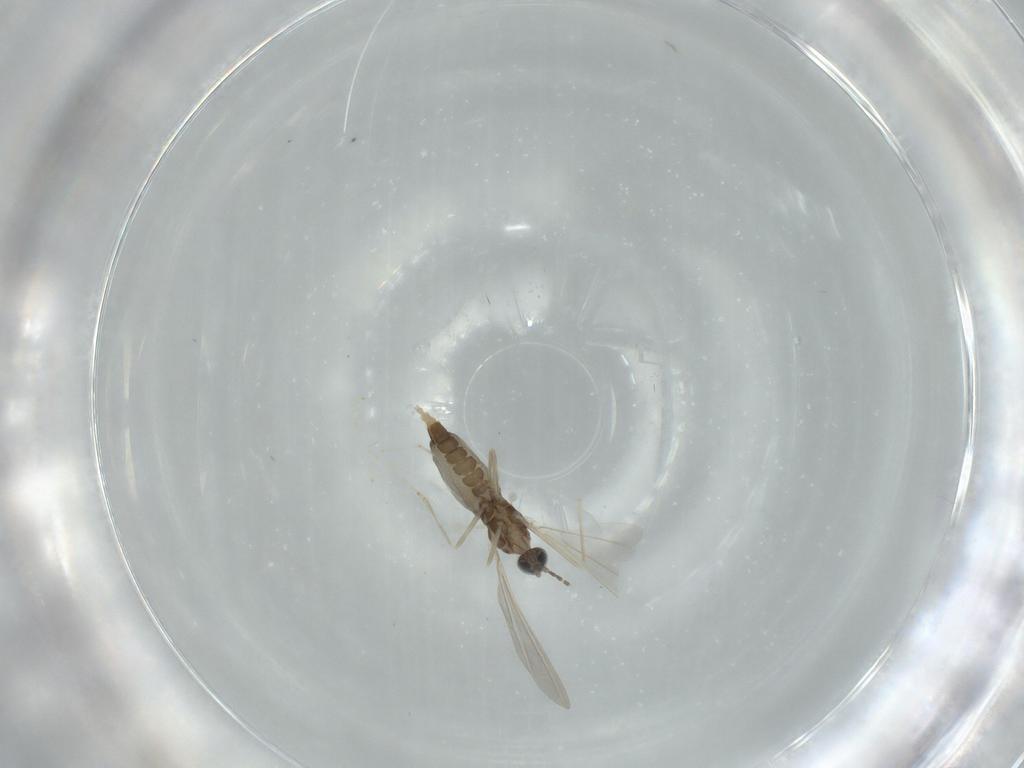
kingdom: Animalia
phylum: Arthropoda
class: Insecta
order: Diptera
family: Cecidomyiidae
